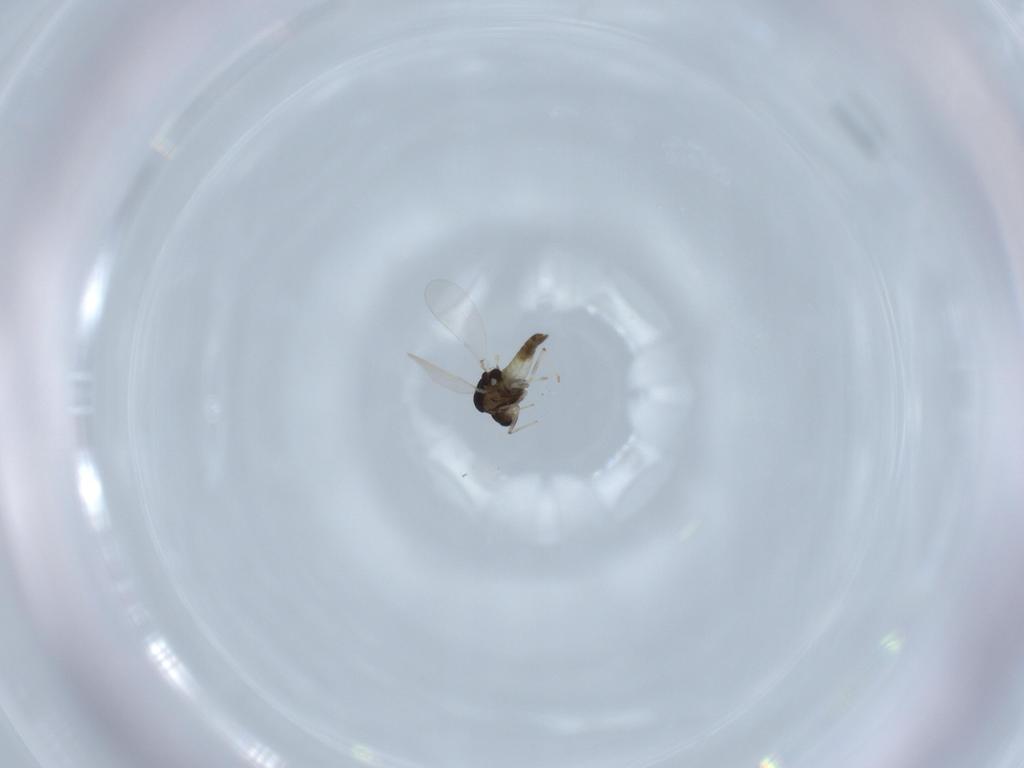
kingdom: Animalia
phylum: Arthropoda
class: Insecta
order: Diptera
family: Chironomidae
